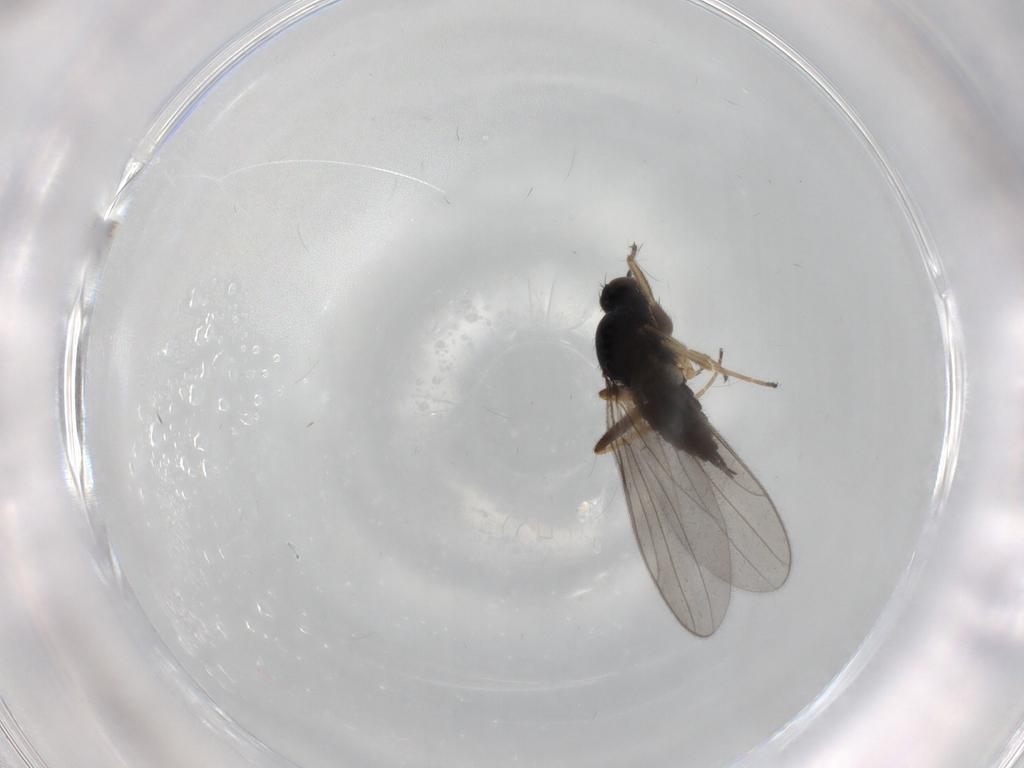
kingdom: Animalia
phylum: Arthropoda
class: Insecta
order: Diptera
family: Hybotidae
